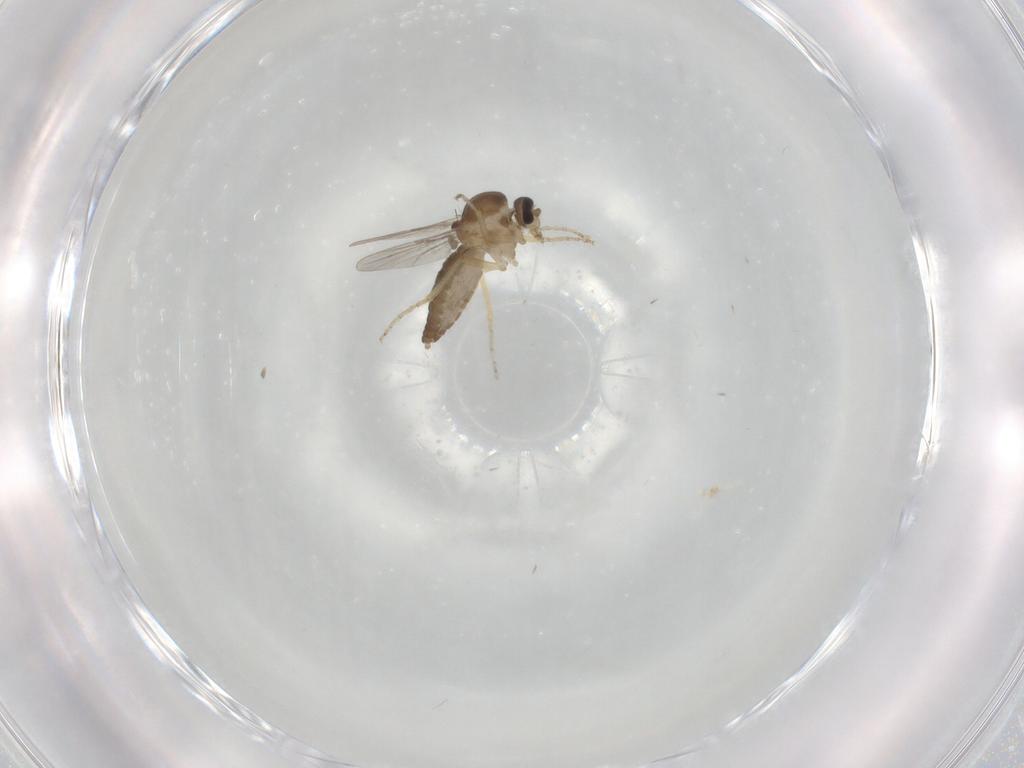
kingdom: Animalia
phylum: Arthropoda
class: Insecta
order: Diptera
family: Ceratopogonidae
